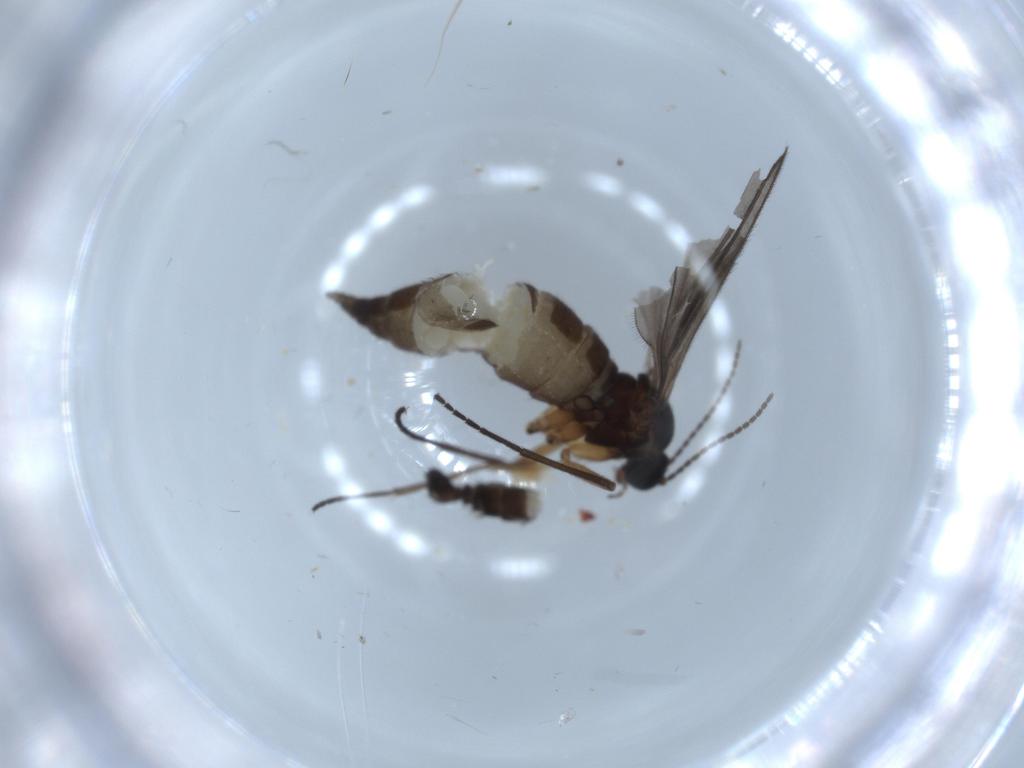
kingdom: Animalia
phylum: Arthropoda
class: Insecta
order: Diptera
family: Sciaridae
